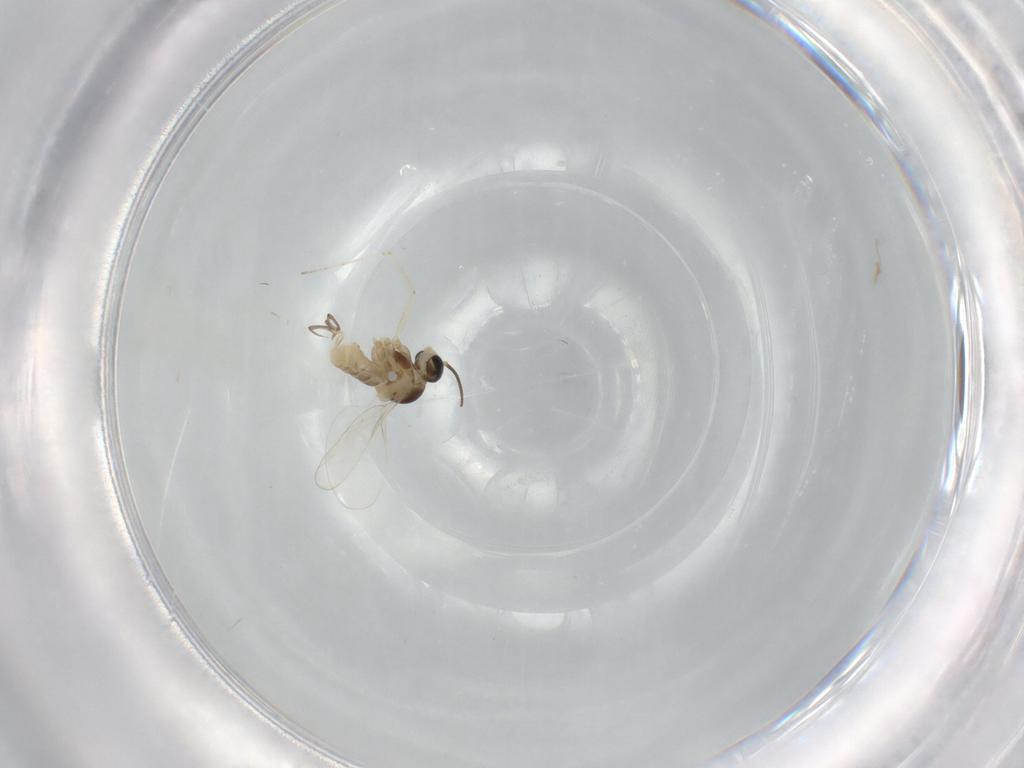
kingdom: Animalia
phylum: Arthropoda
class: Insecta
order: Diptera
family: Cecidomyiidae
